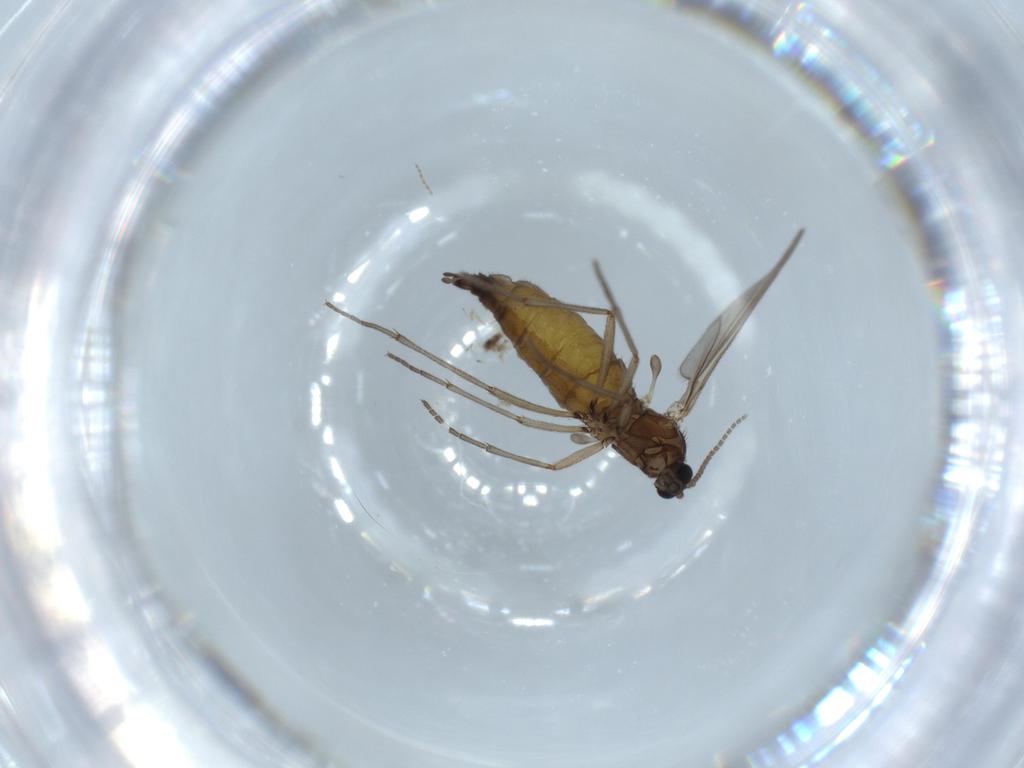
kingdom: Animalia
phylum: Arthropoda
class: Insecta
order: Diptera
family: Sciaridae
